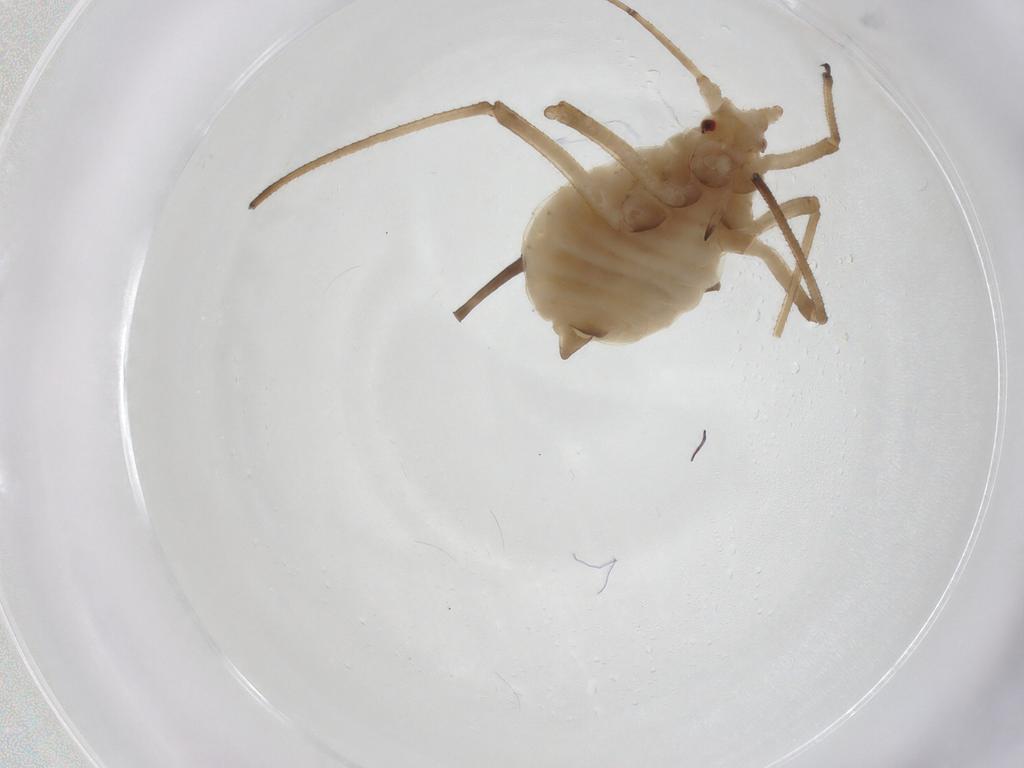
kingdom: Animalia
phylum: Arthropoda
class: Insecta
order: Hemiptera
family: Aphididae
